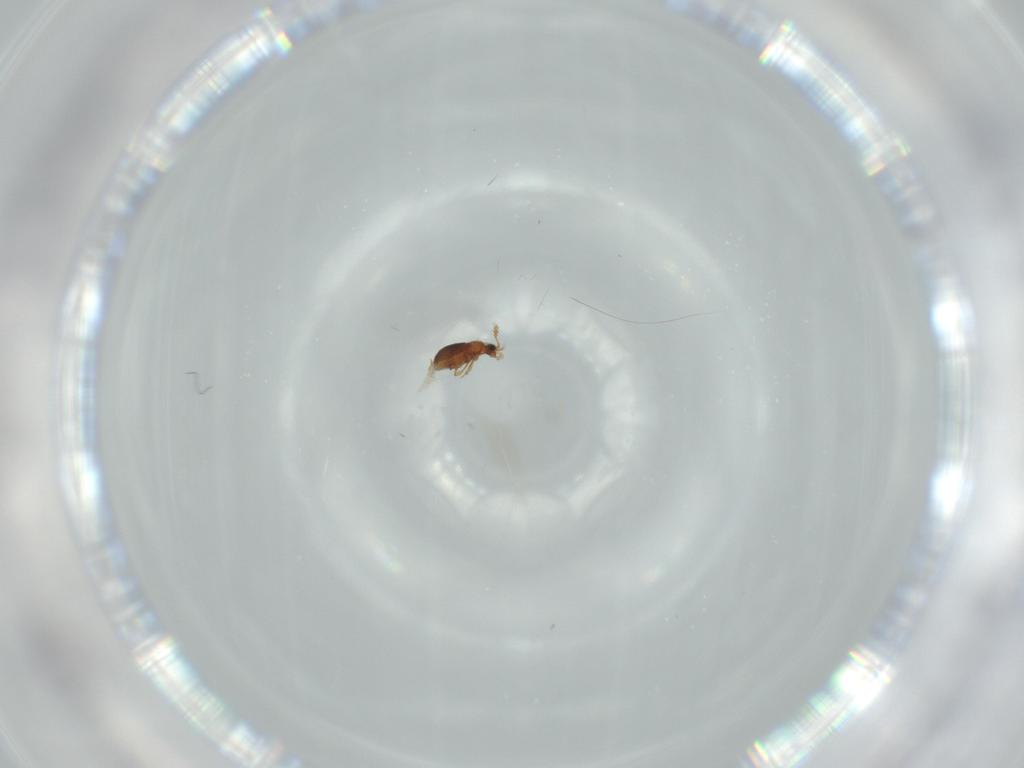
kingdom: Animalia
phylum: Arthropoda
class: Insecta
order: Coleoptera
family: Staphylinidae
